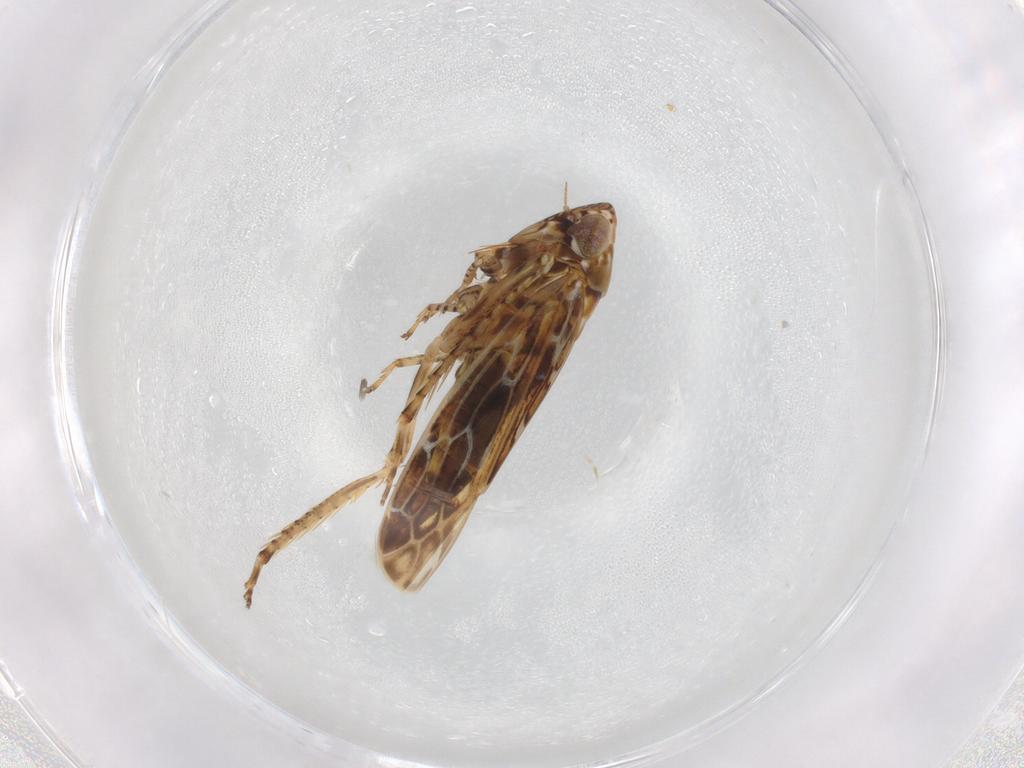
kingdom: Animalia
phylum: Arthropoda
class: Insecta
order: Hemiptera
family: Cicadellidae
